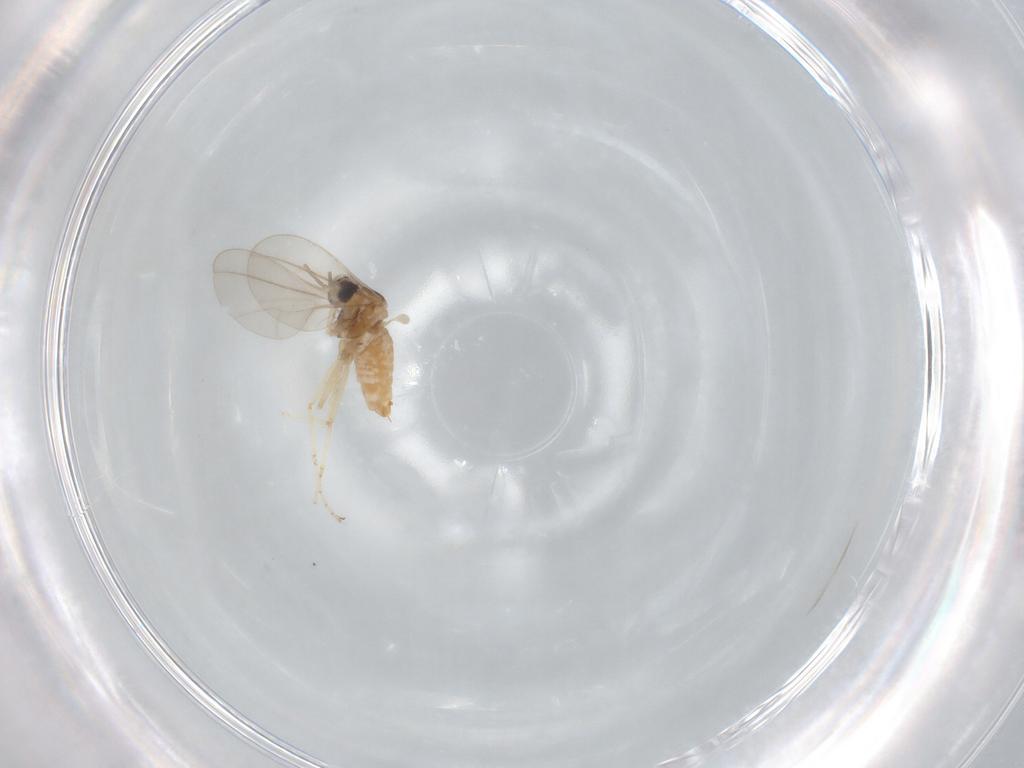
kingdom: Animalia
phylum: Arthropoda
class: Insecta
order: Diptera
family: Cecidomyiidae
